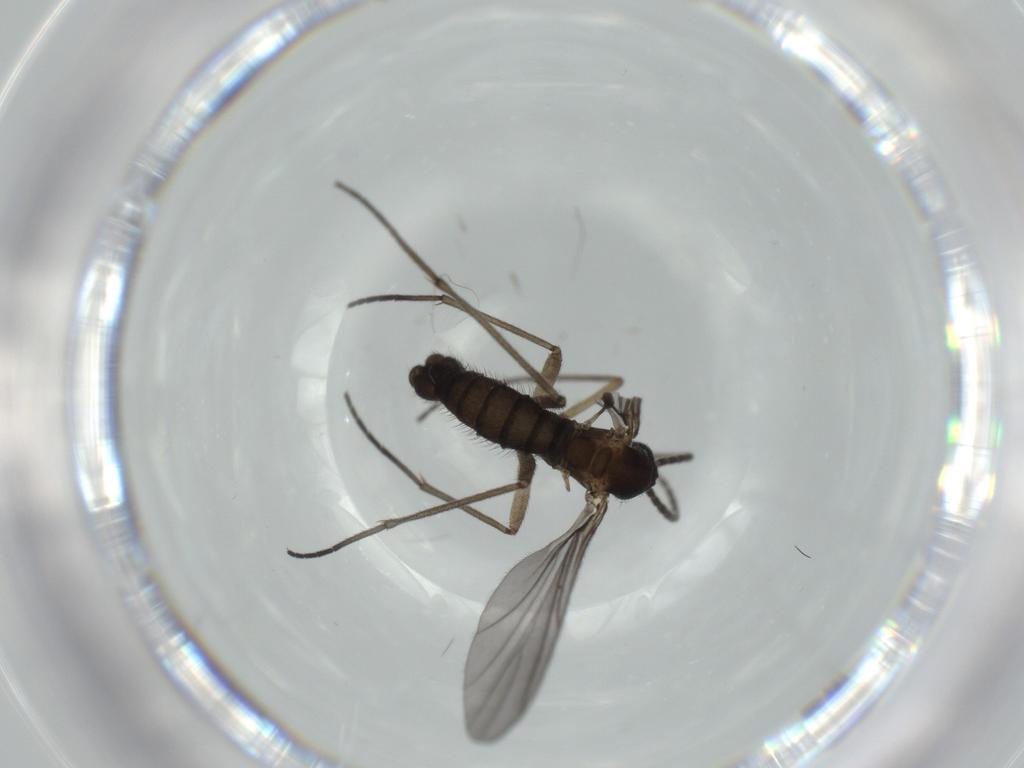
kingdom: Animalia
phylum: Arthropoda
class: Insecta
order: Diptera
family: Sciaridae
